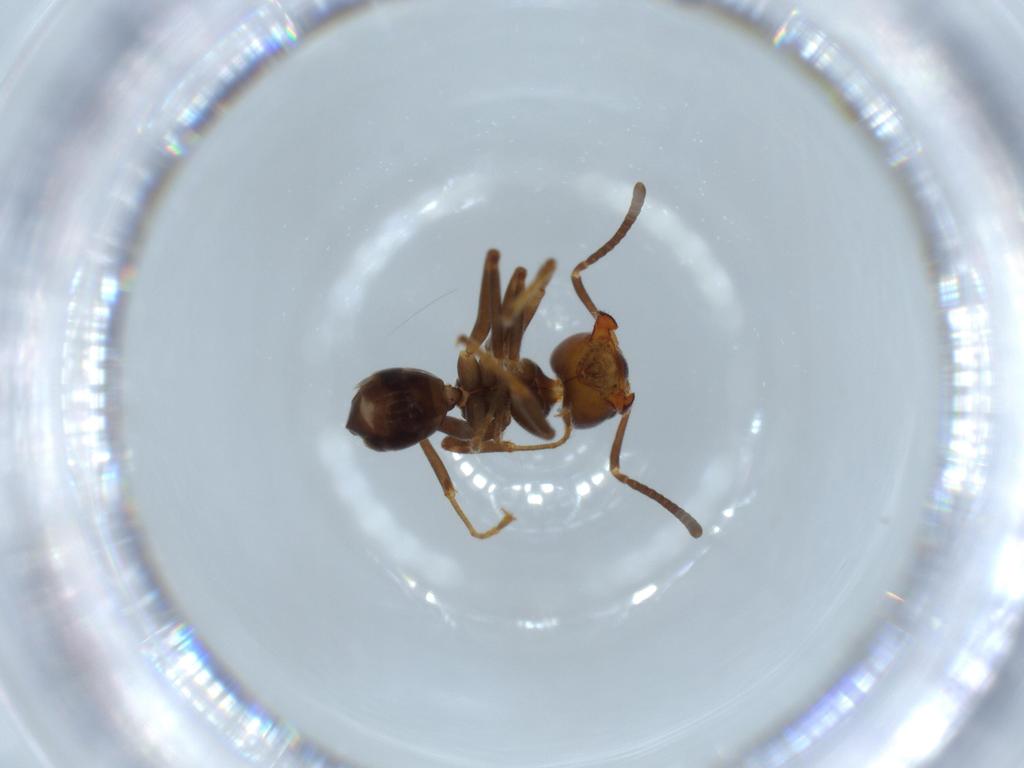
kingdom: Animalia
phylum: Arthropoda
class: Insecta
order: Hymenoptera
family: Formicidae
